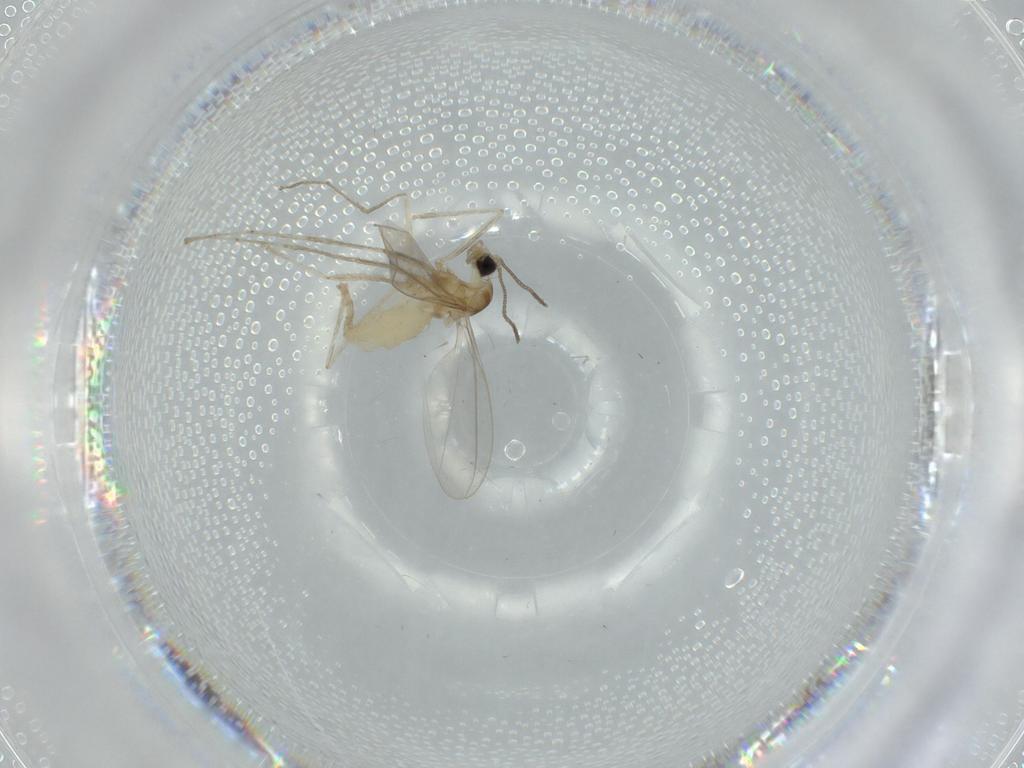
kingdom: Animalia
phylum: Arthropoda
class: Insecta
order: Diptera
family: Cecidomyiidae
